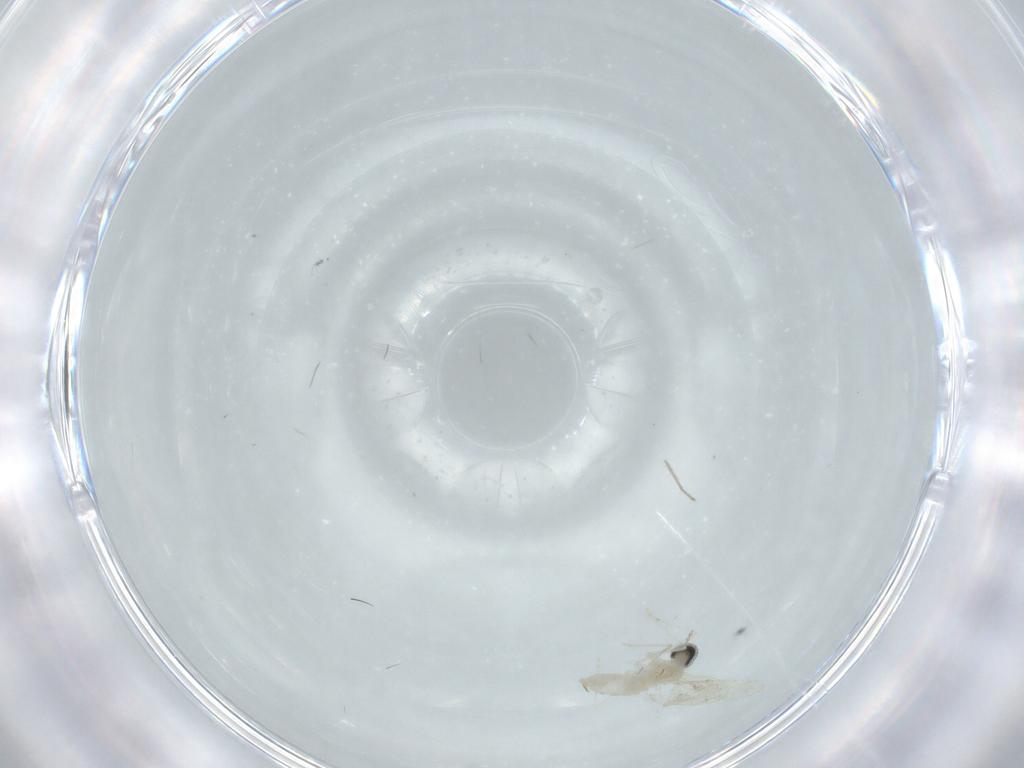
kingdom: Animalia
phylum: Arthropoda
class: Insecta
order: Diptera
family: Cecidomyiidae
